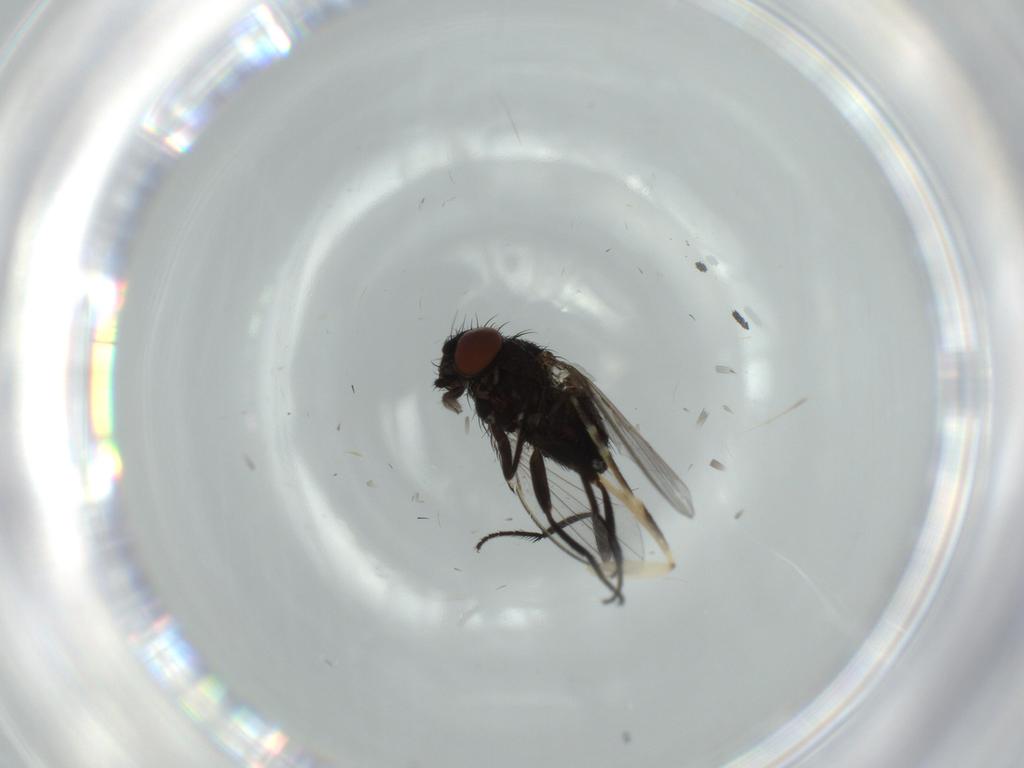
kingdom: Animalia
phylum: Arthropoda
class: Insecta
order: Diptera
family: Milichiidae
